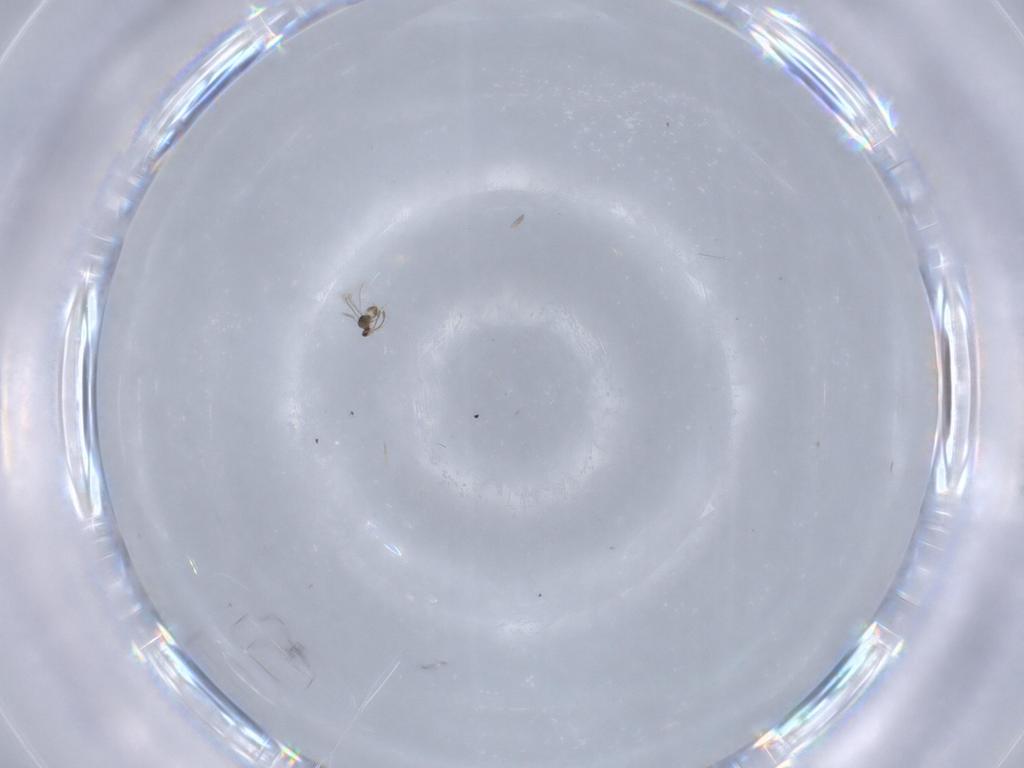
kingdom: Animalia
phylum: Arthropoda
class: Insecta
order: Hymenoptera
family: Mymaridae
